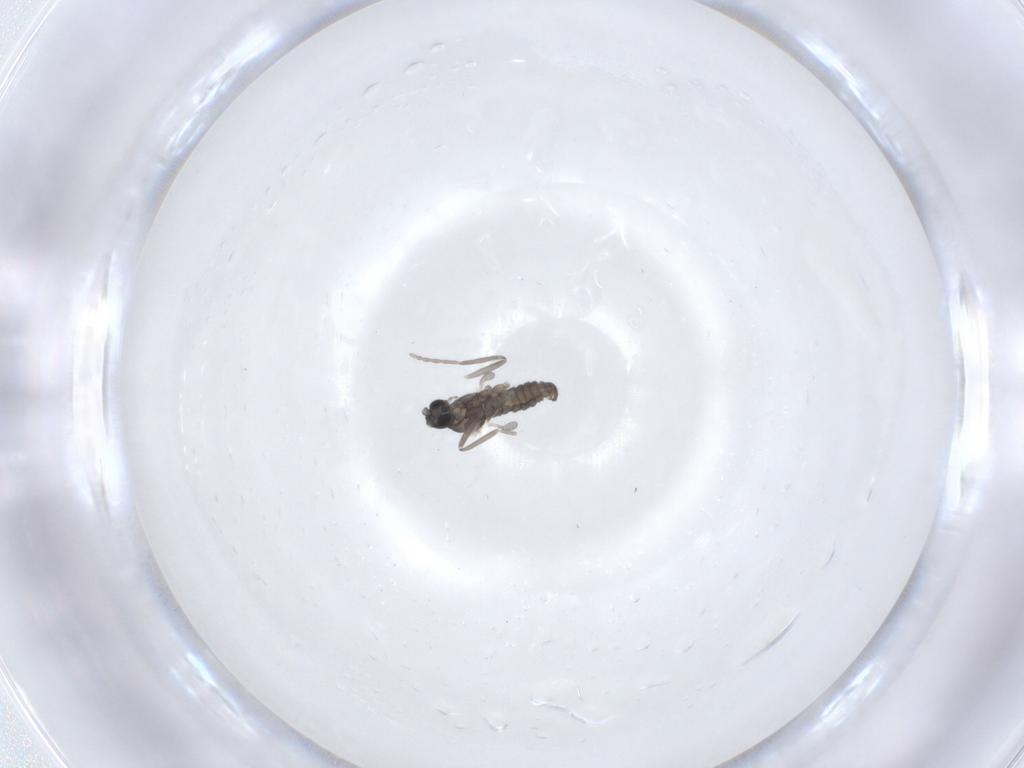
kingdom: Animalia
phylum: Arthropoda
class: Insecta
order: Diptera
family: Cecidomyiidae
